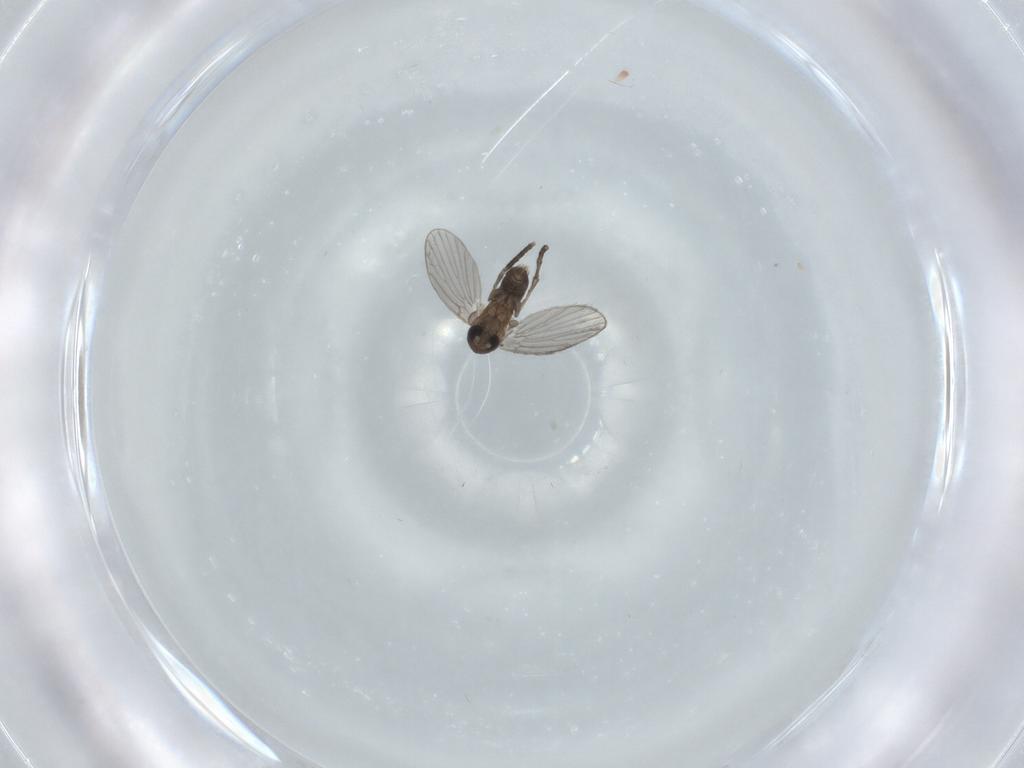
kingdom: Animalia
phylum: Arthropoda
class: Insecta
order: Diptera
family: Psychodidae
